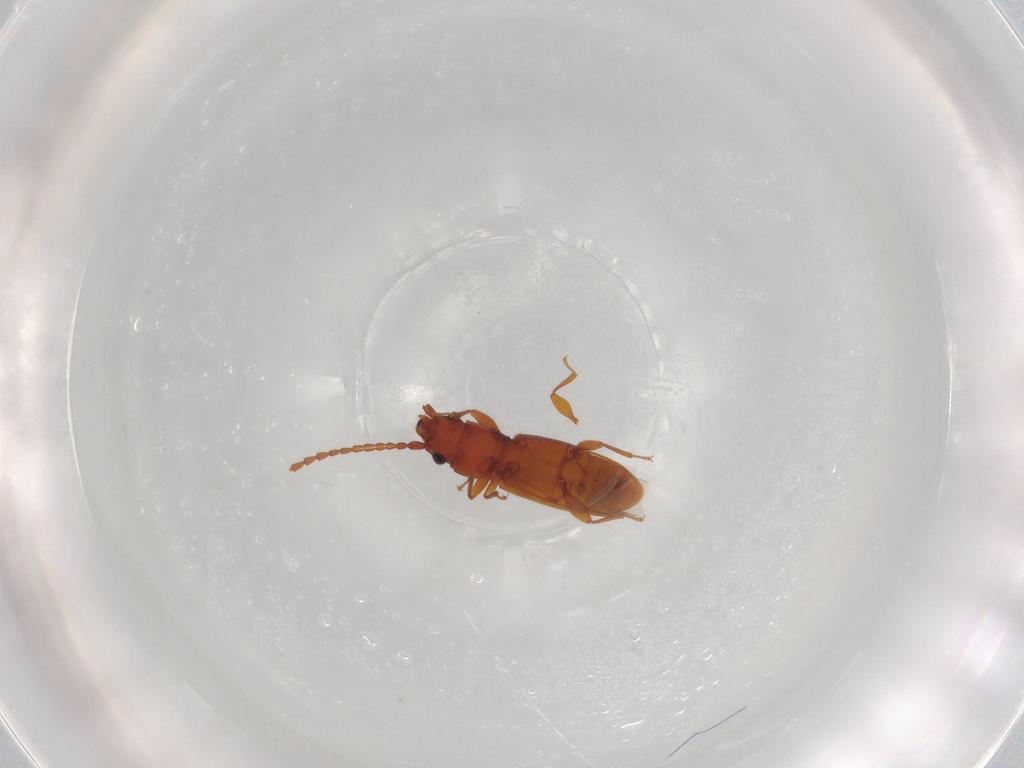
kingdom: Animalia
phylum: Arthropoda
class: Insecta
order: Coleoptera
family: Laemophloeidae
